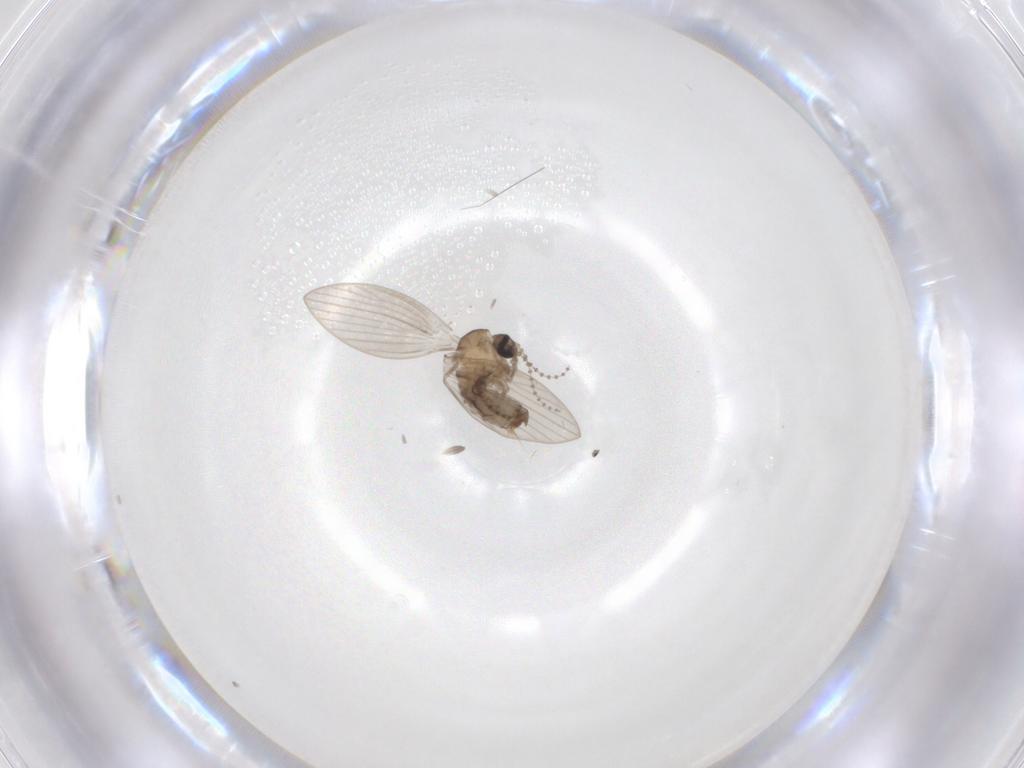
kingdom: Animalia
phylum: Arthropoda
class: Insecta
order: Diptera
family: Psychodidae
